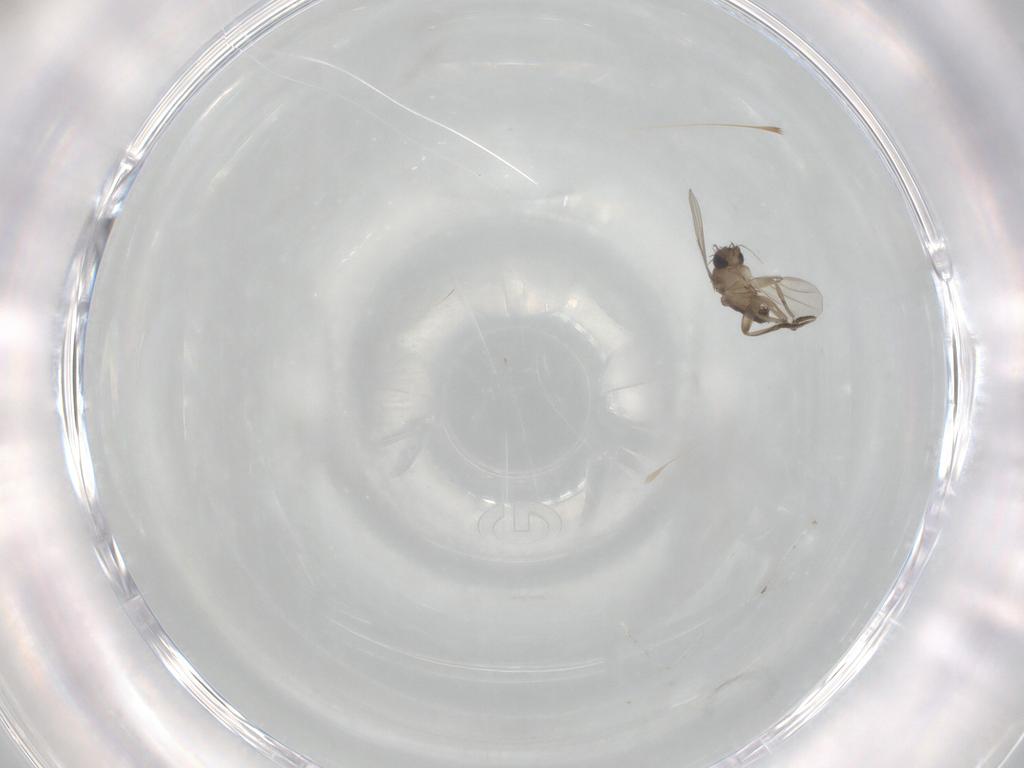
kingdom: Animalia
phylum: Arthropoda
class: Insecta
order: Diptera
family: Phoridae
